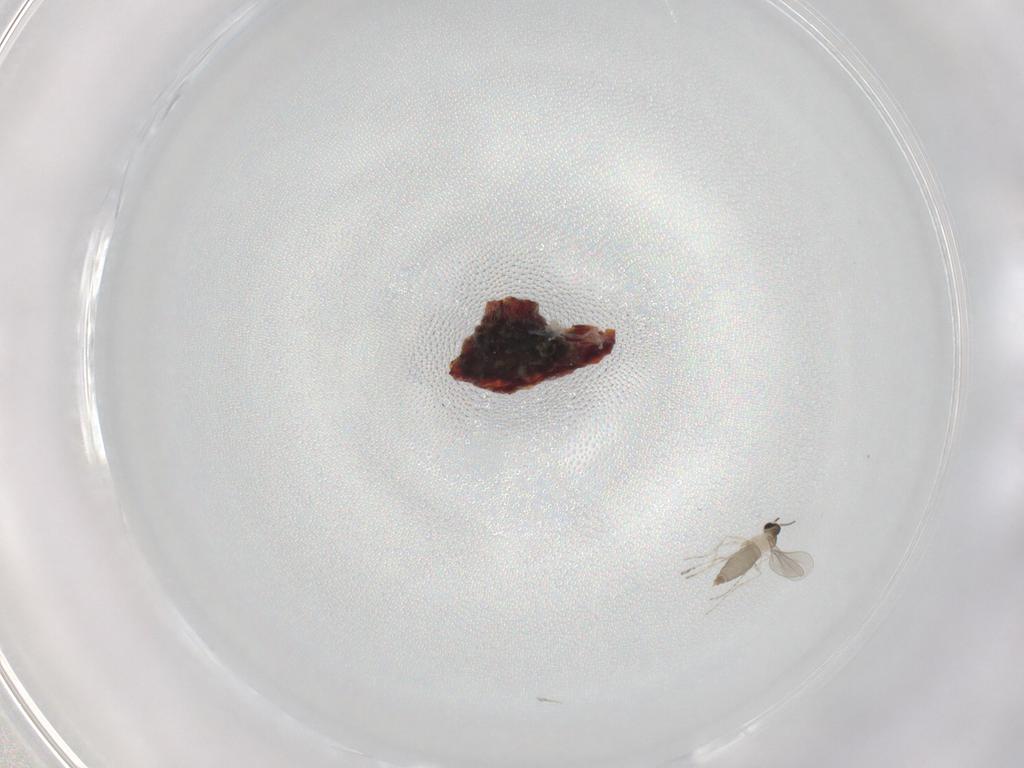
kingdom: Animalia
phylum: Arthropoda
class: Insecta
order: Diptera
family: Cecidomyiidae
